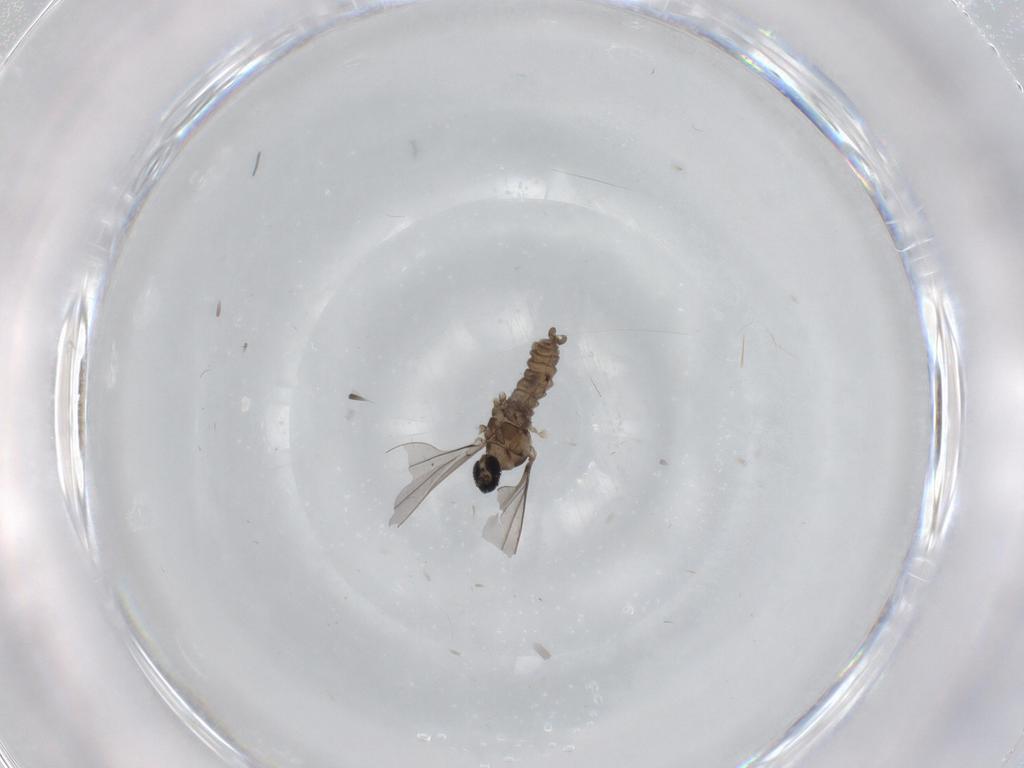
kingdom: Animalia
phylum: Arthropoda
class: Insecta
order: Diptera
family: Cecidomyiidae
